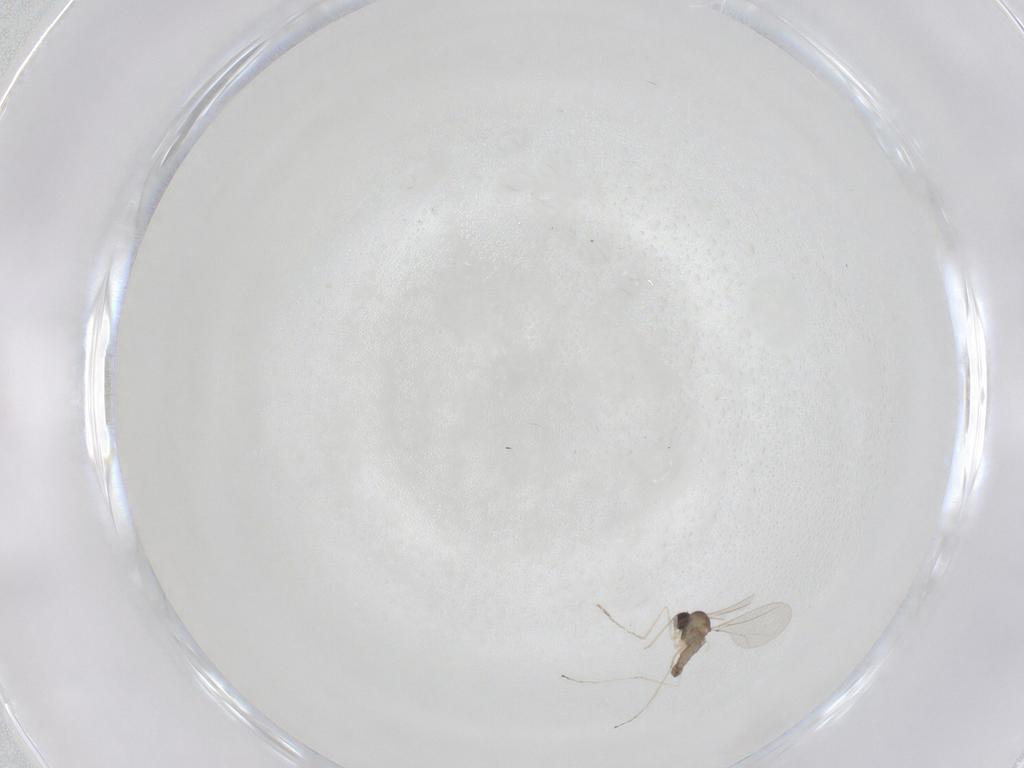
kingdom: Animalia
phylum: Arthropoda
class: Insecta
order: Diptera
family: Cecidomyiidae
